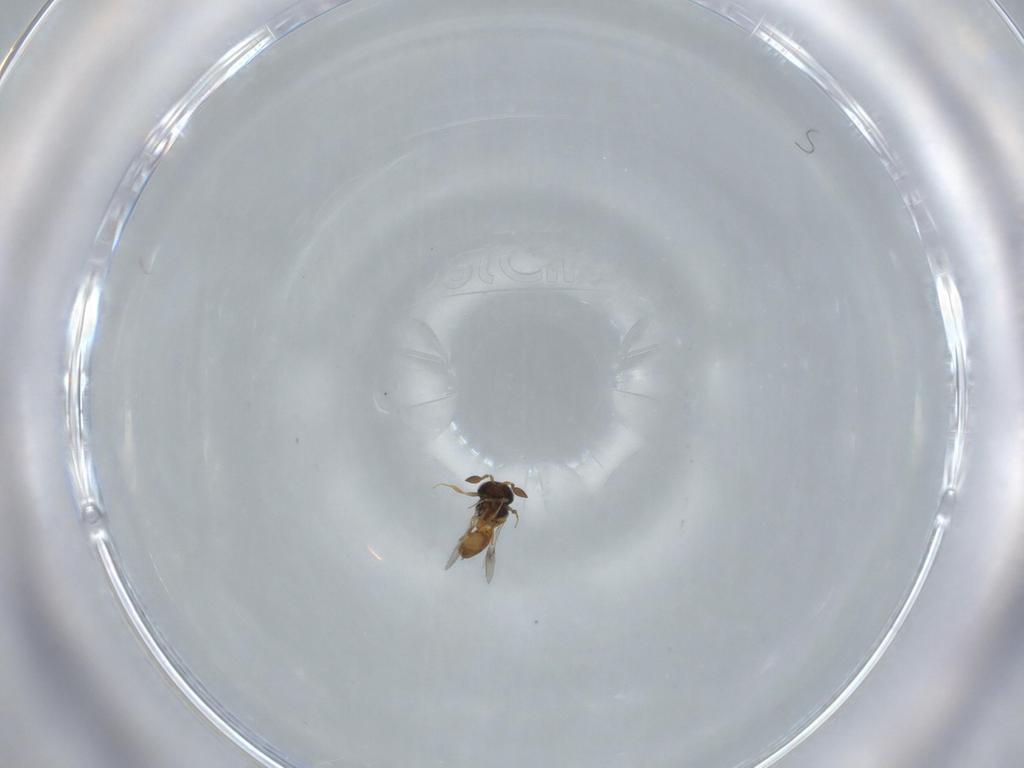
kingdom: Animalia
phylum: Arthropoda
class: Insecta
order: Hymenoptera
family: Scelionidae
